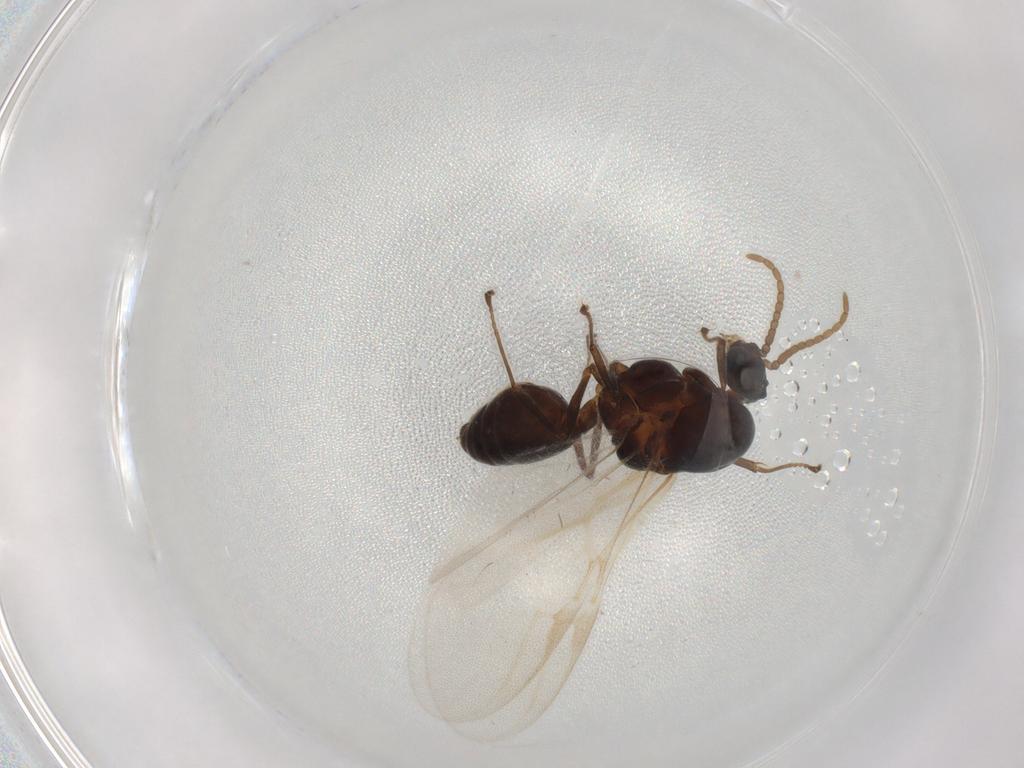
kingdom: Animalia
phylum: Arthropoda
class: Insecta
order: Hymenoptera
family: Formicidae
